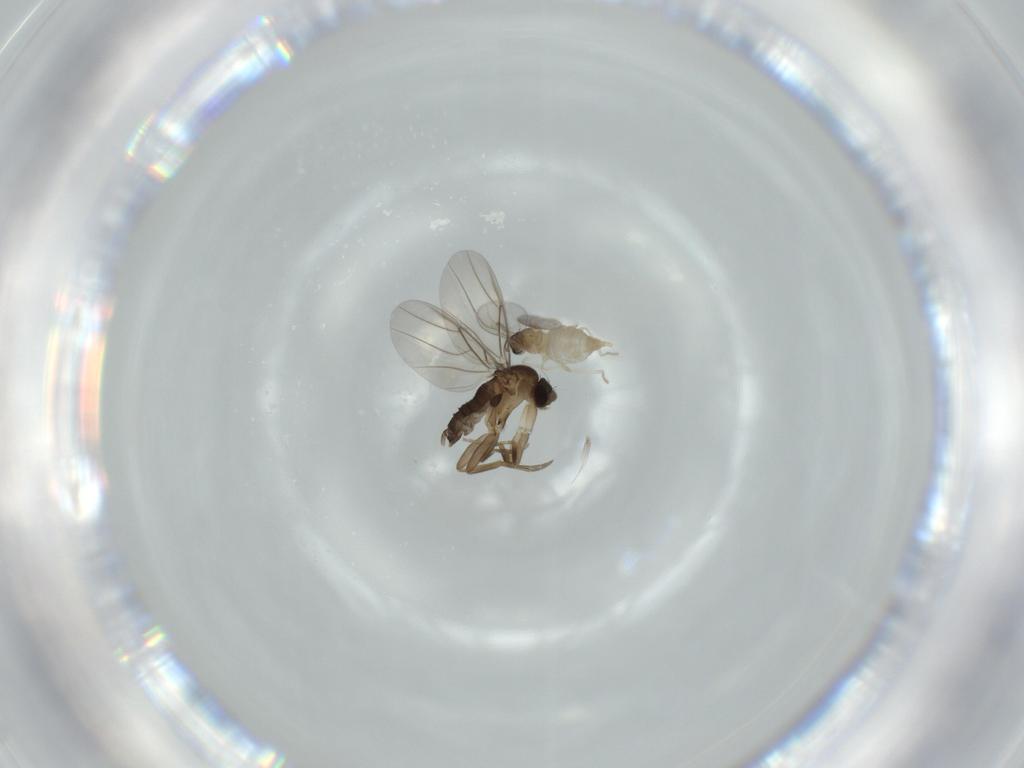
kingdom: Animalia
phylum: Arthropoda
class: Insecta
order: Diptera
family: Phoridae
